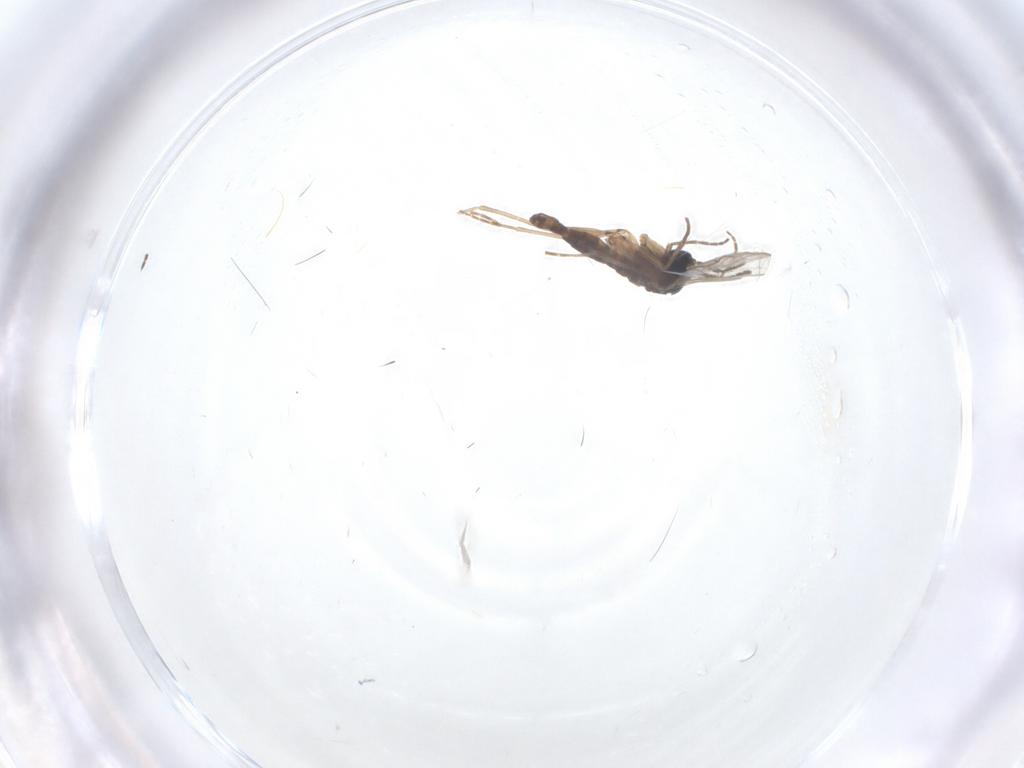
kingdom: Animalia
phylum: Arthropoda
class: Insecta
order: Diptera
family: Sciaridae
